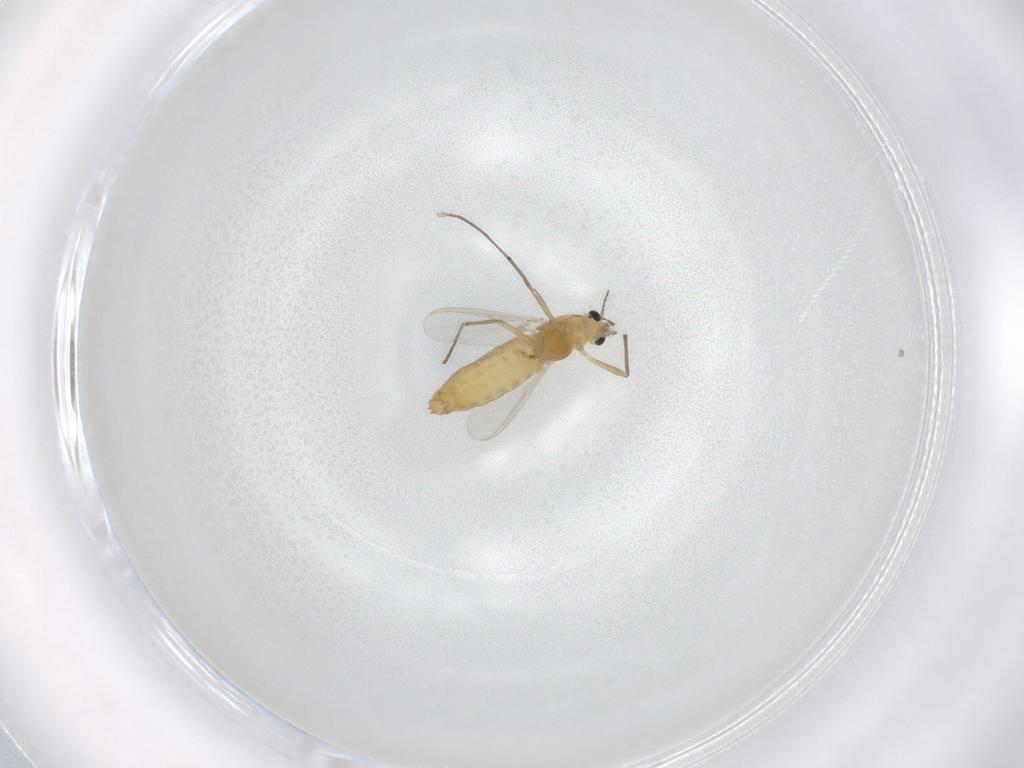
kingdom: Animalia
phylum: Arthropoda
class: Insecta
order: Diptera
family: Chironomidae
